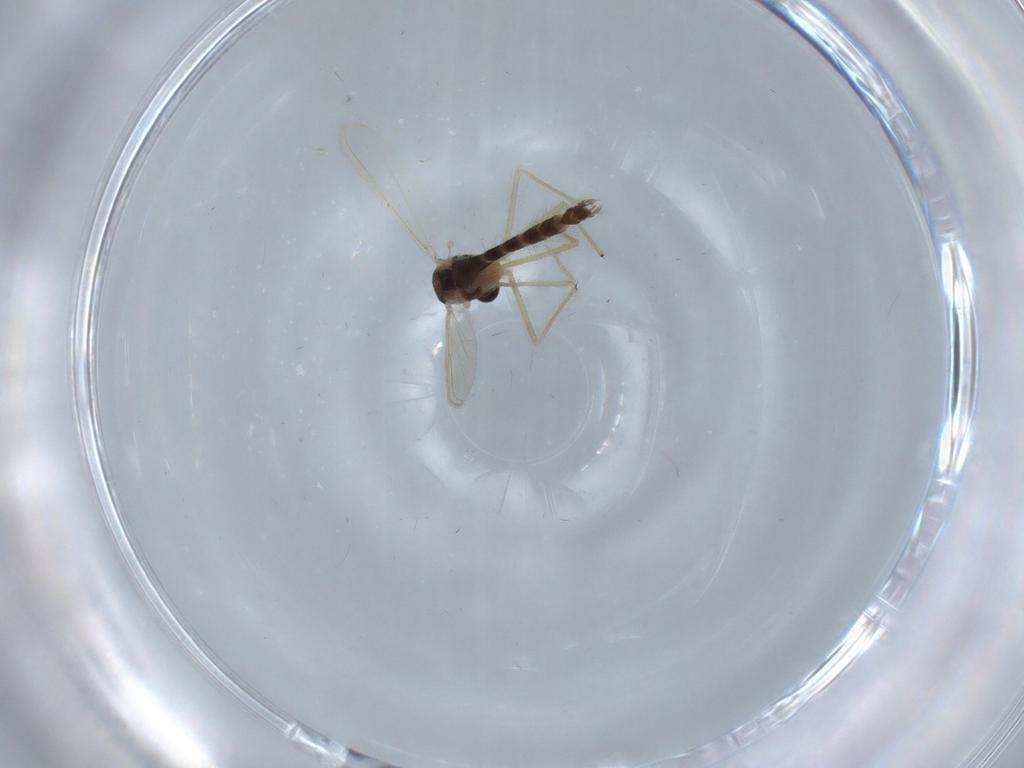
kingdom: Animalia
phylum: Arthropoda
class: Insecta
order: Diptera
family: Chironomidae
